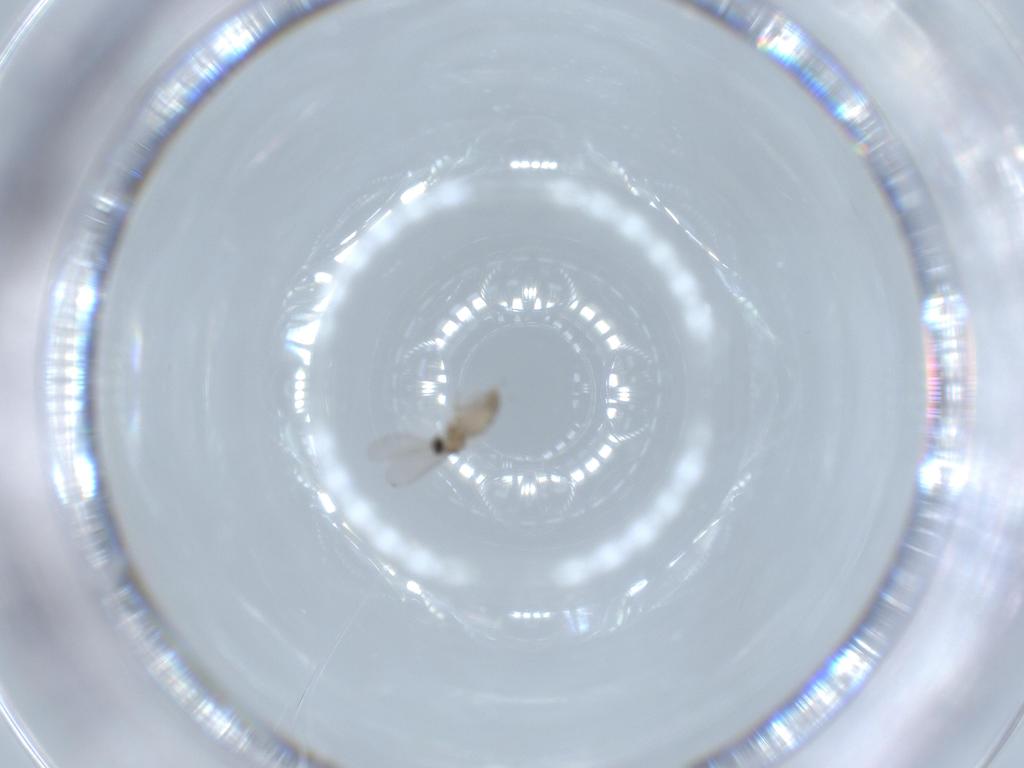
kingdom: Animalia
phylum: Arthropoda
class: Insecta
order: Diptera
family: Cecidomyiidae
